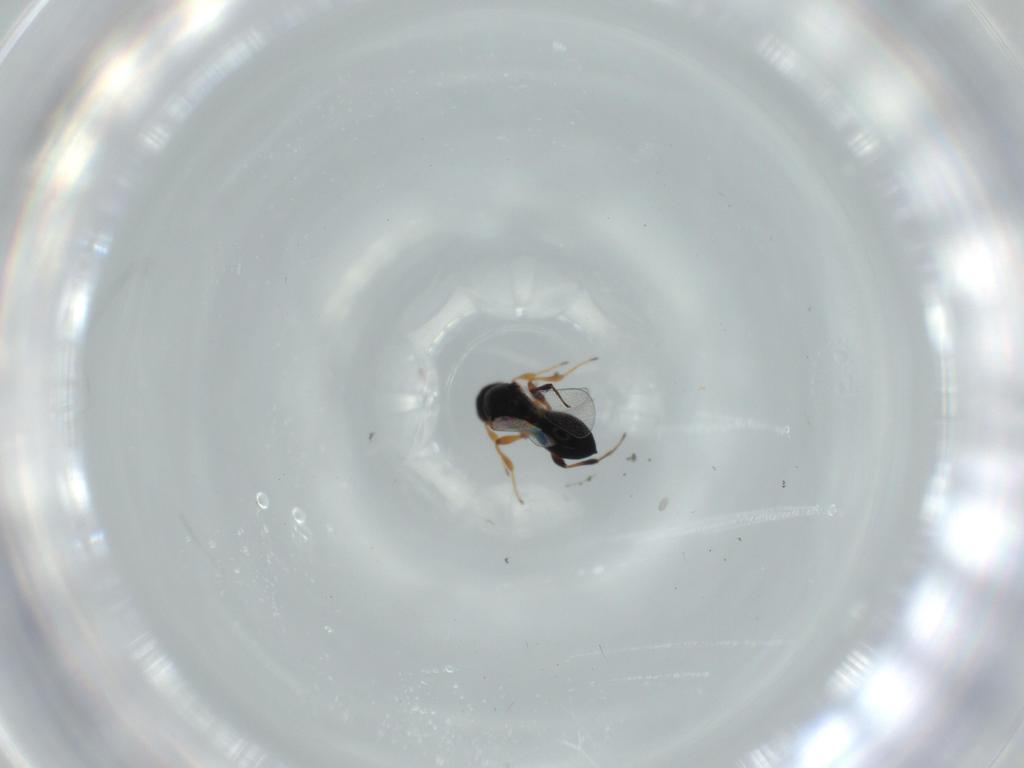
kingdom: Animalia
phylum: Arthropoda
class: Insecta
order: Hymenoptera
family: Platygastridae
